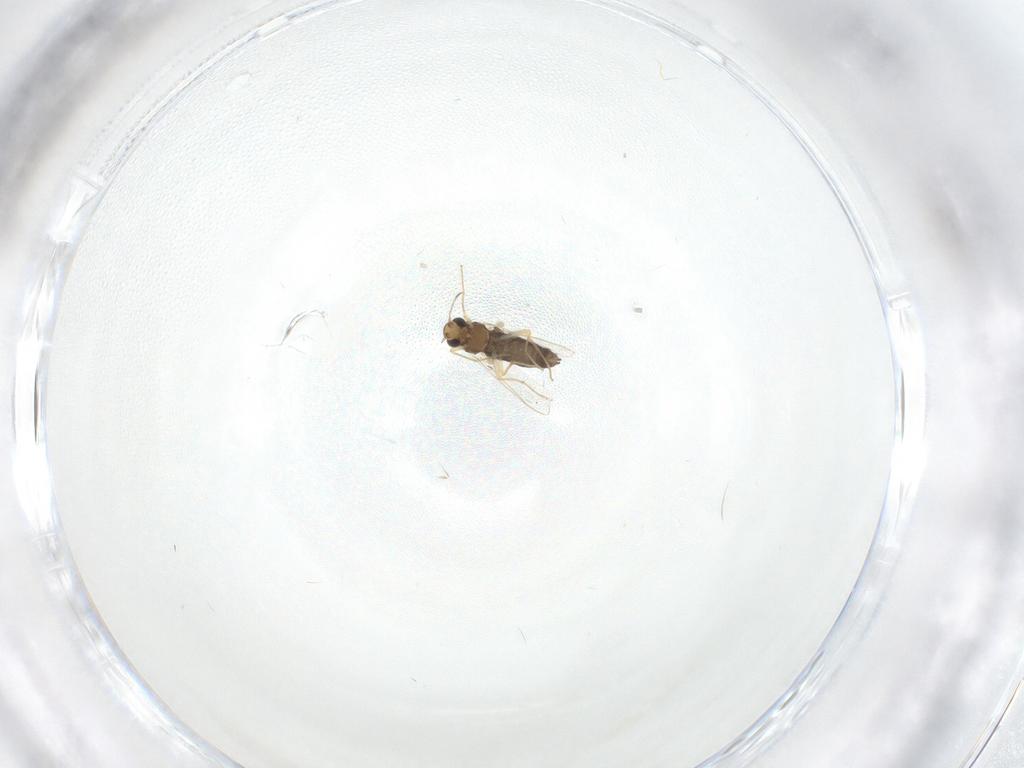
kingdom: Animalia
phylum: Arthropoda
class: Insecta
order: Diptera
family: Chironomidae
